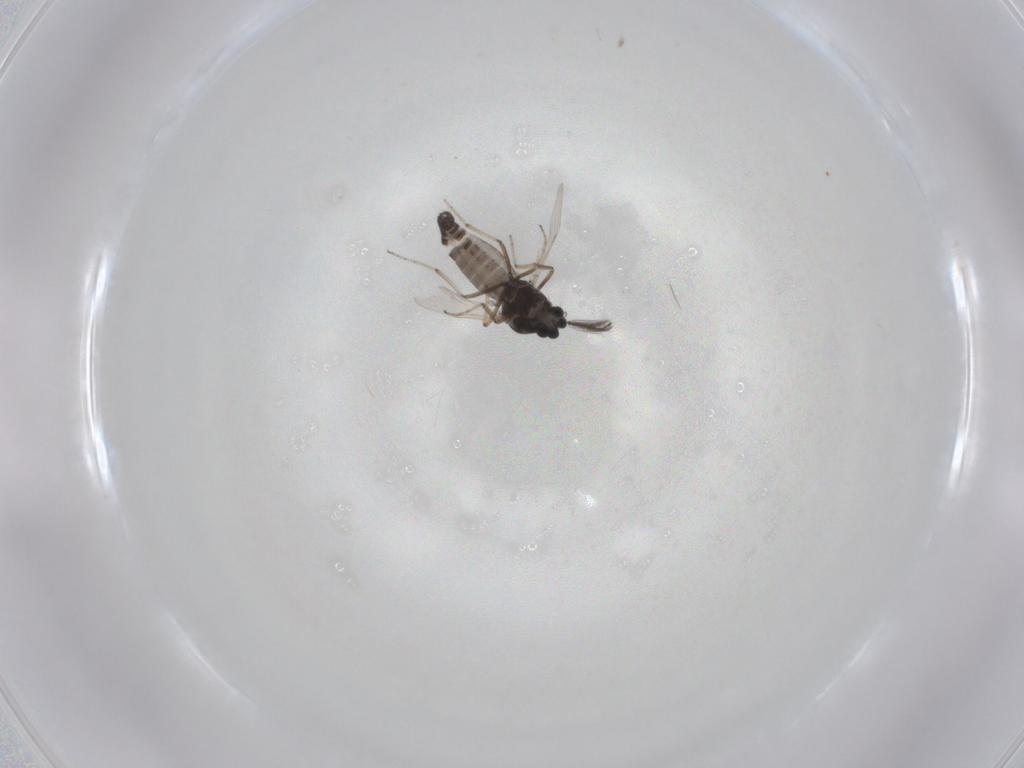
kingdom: Animalia
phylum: Arthropoda
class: Insecta
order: Diptera
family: Ceratopogonidae
